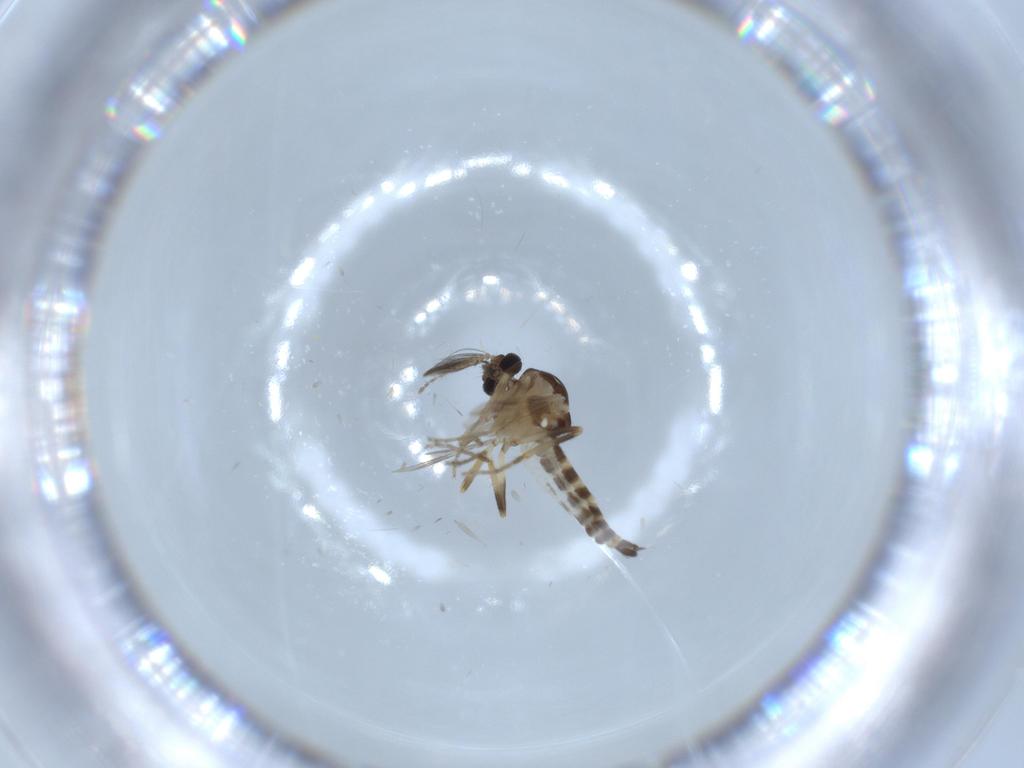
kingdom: Animalia
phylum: Arthropoda
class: Insecta
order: Diptera
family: Ceratopogonidae
